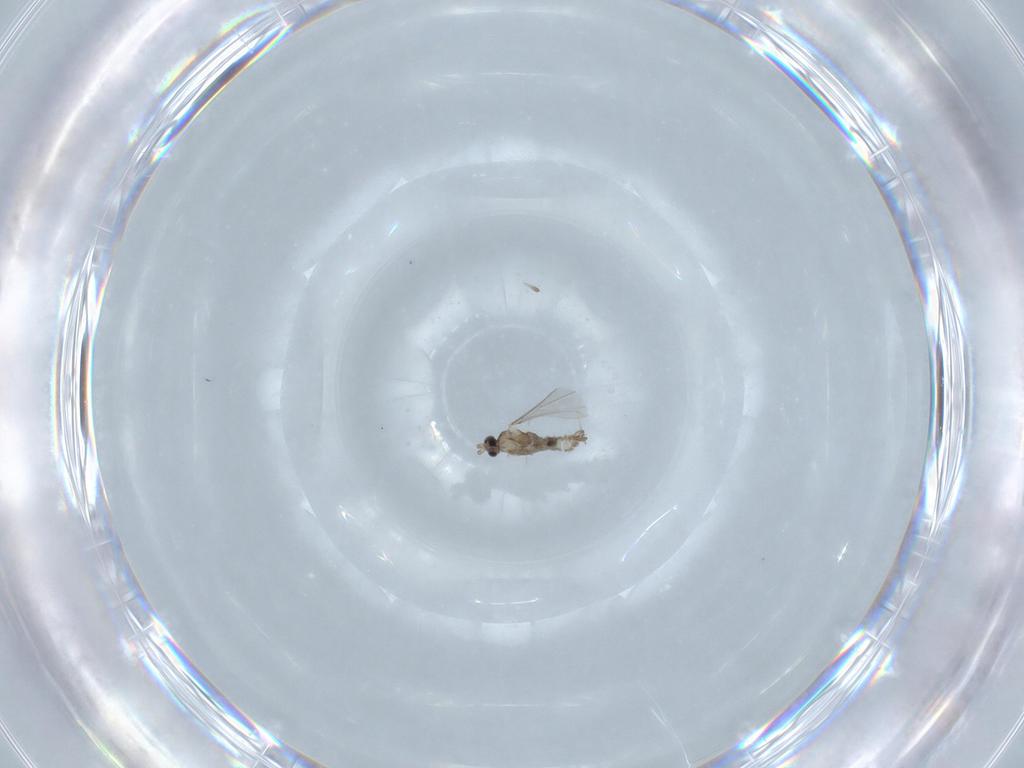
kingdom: Animalia
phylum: Arthropoda
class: Insecta
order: Diptera
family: Cecidomyiidae
